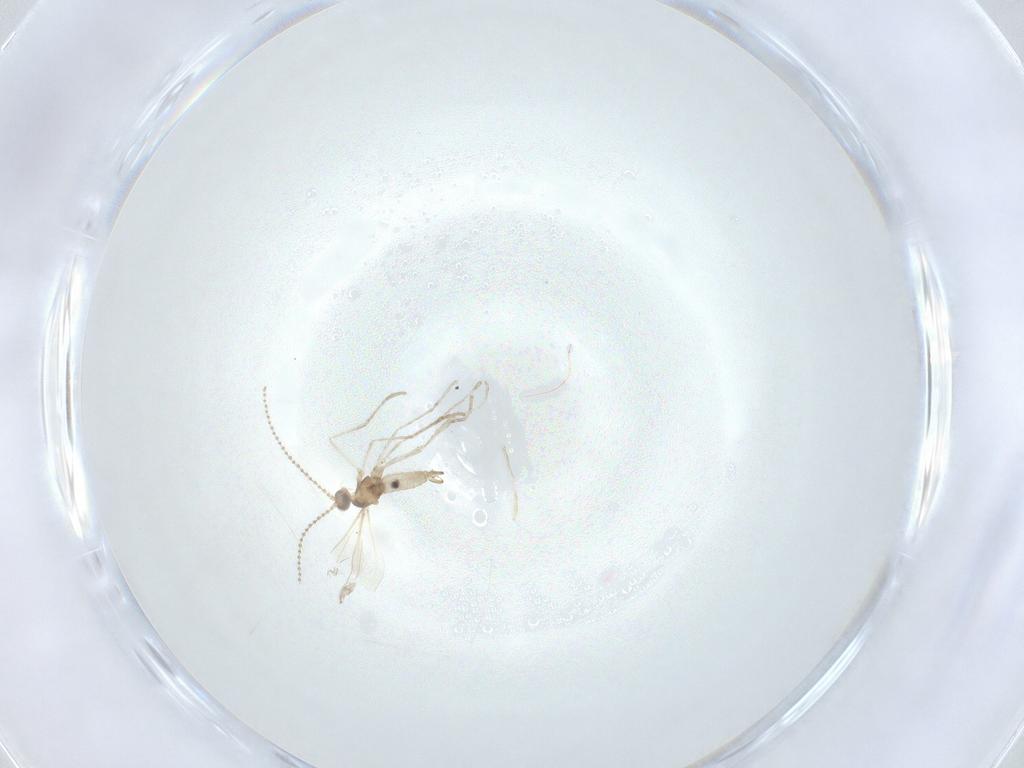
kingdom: Animalia
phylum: Arthropoda
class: Insecta
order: Diptera
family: Cecidomyiidae
